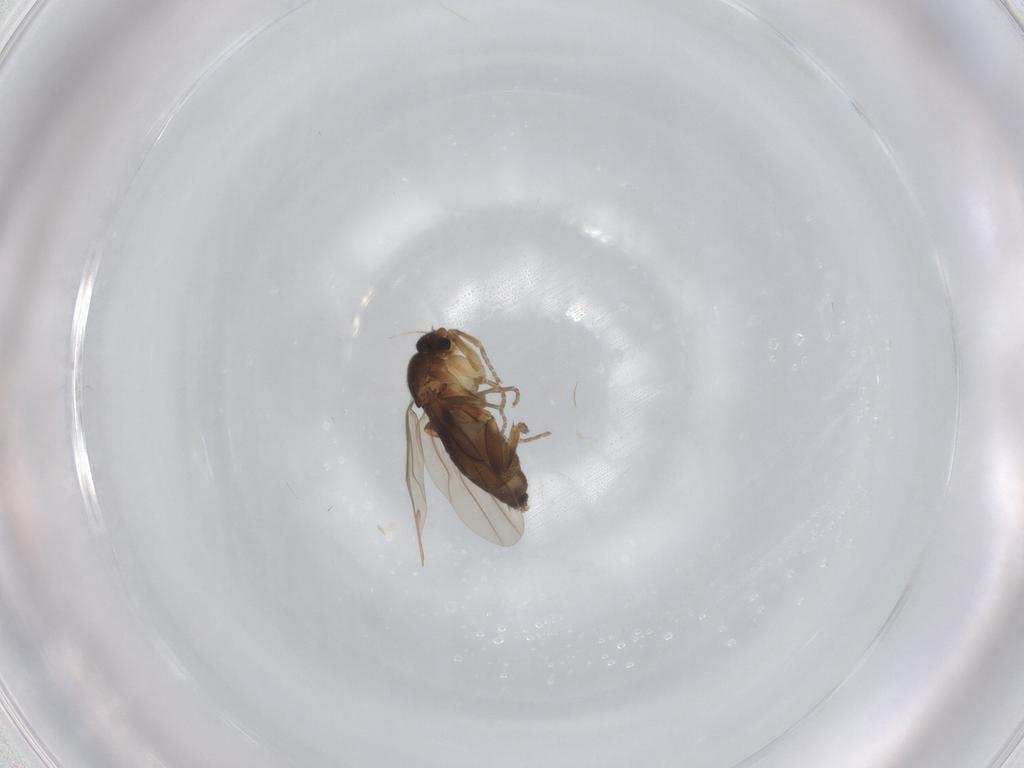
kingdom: Animalia
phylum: Arthropoda
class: Insecta
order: Diptera
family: Phoridae
